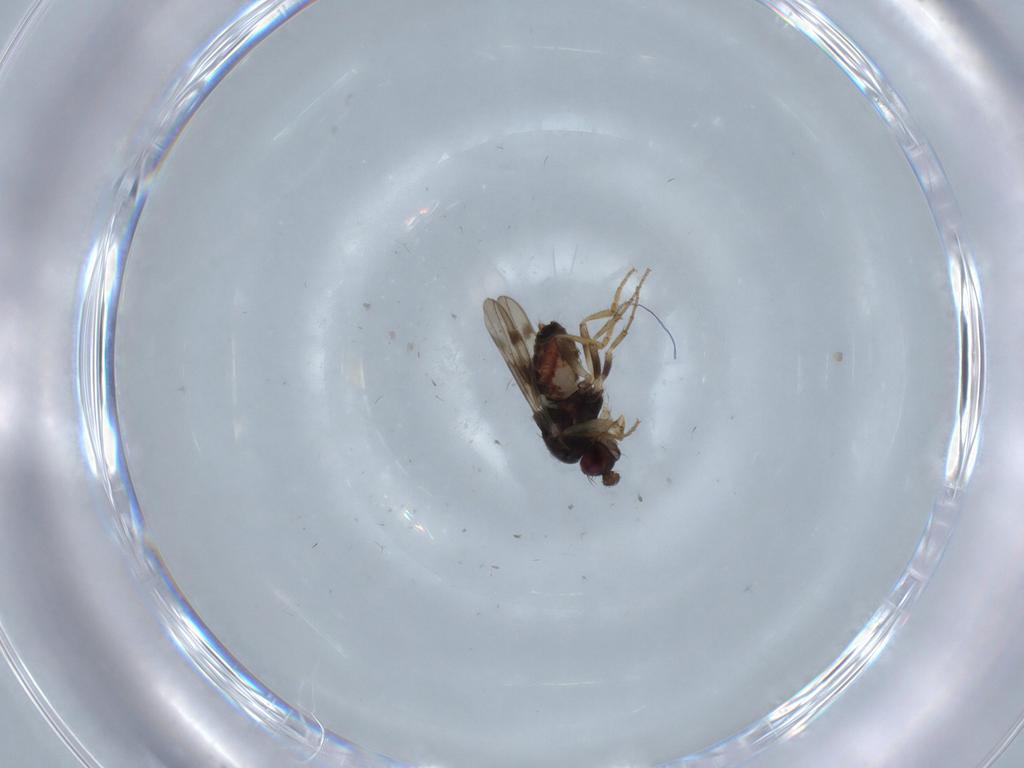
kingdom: Animalia
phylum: Arthropoda
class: Insecta
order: Diptera
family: Sphaeroceridae
